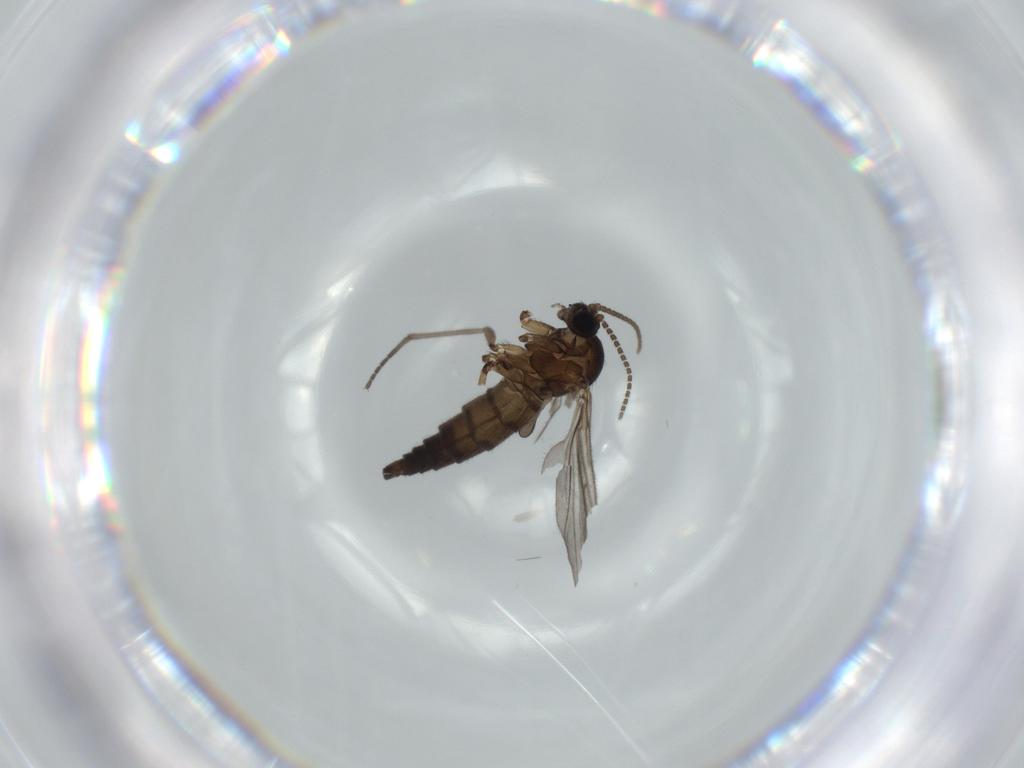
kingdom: Animalia
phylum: Arthropoda
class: Insecta
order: Diptera
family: Sciaridae
